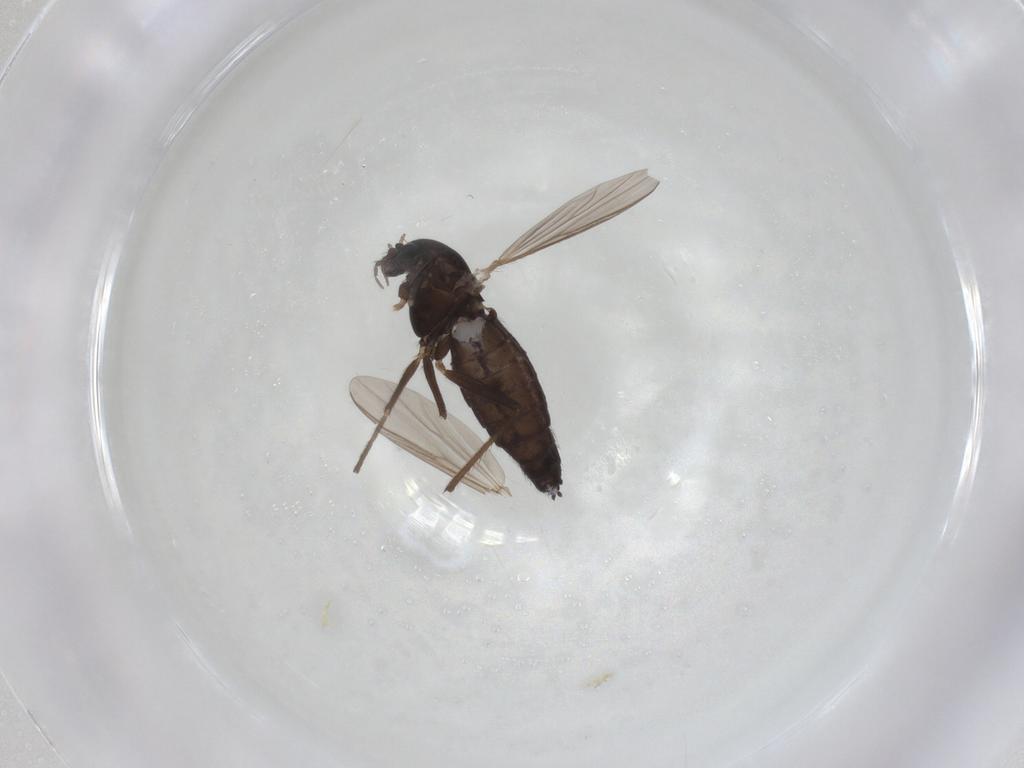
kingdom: Animalia
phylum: Arthropoda
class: Insecta
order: Diptera
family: Chironomidae
